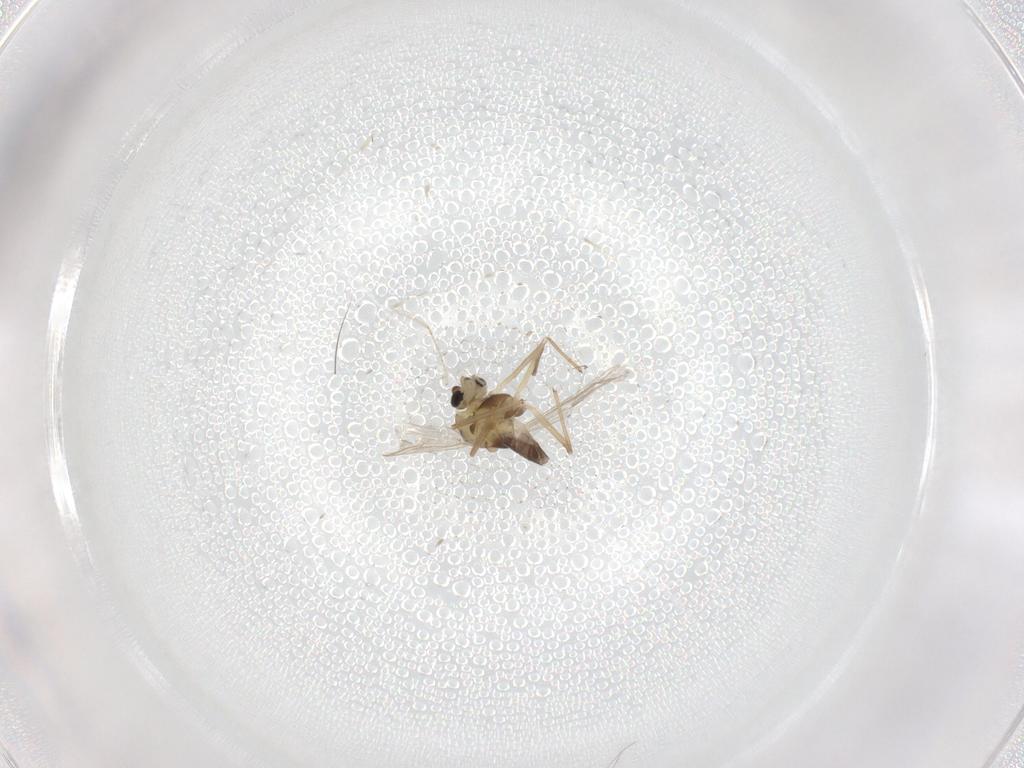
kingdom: Animalia
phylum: Arthropoda
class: Insecta
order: Diptera
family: Chironomidae
